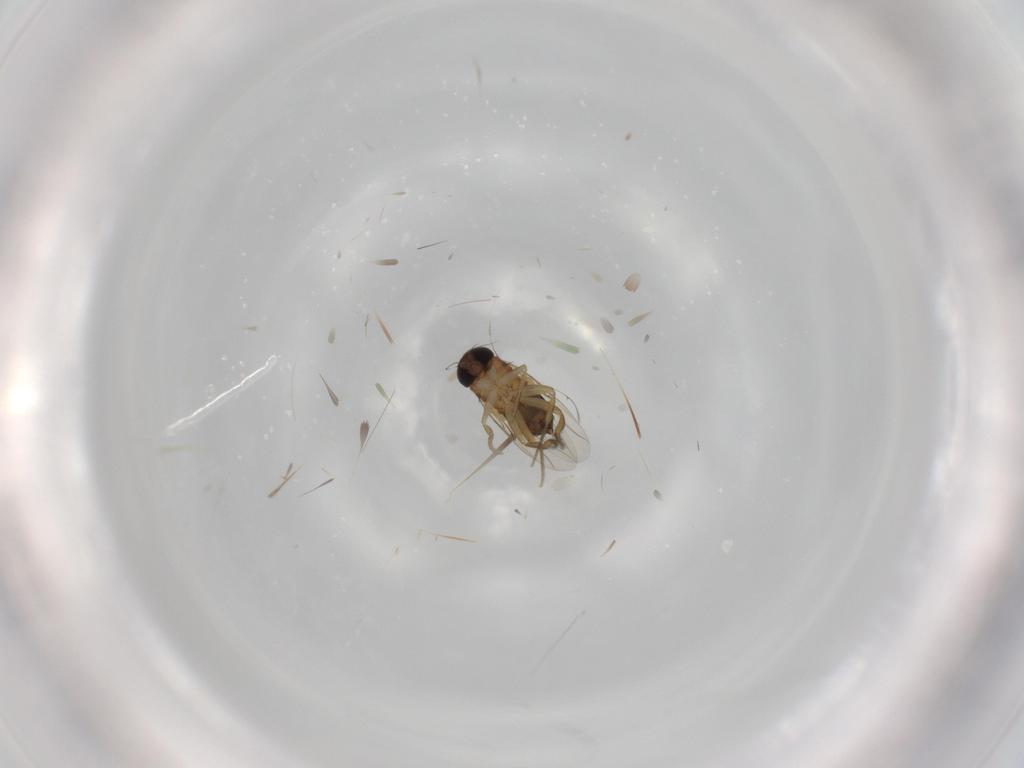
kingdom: Animalia
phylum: Arthropoda
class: Insecta
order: Diptera
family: Phoridae
